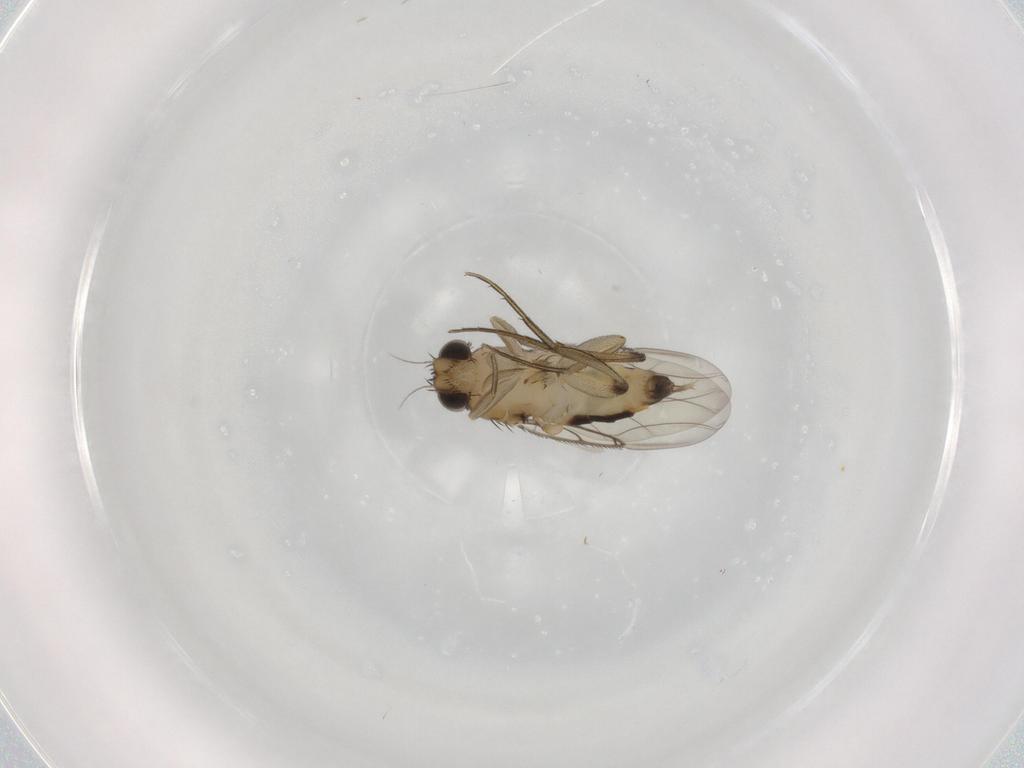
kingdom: Animalia
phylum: Arthropoda
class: Insecta
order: Diptera
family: Phoridae
